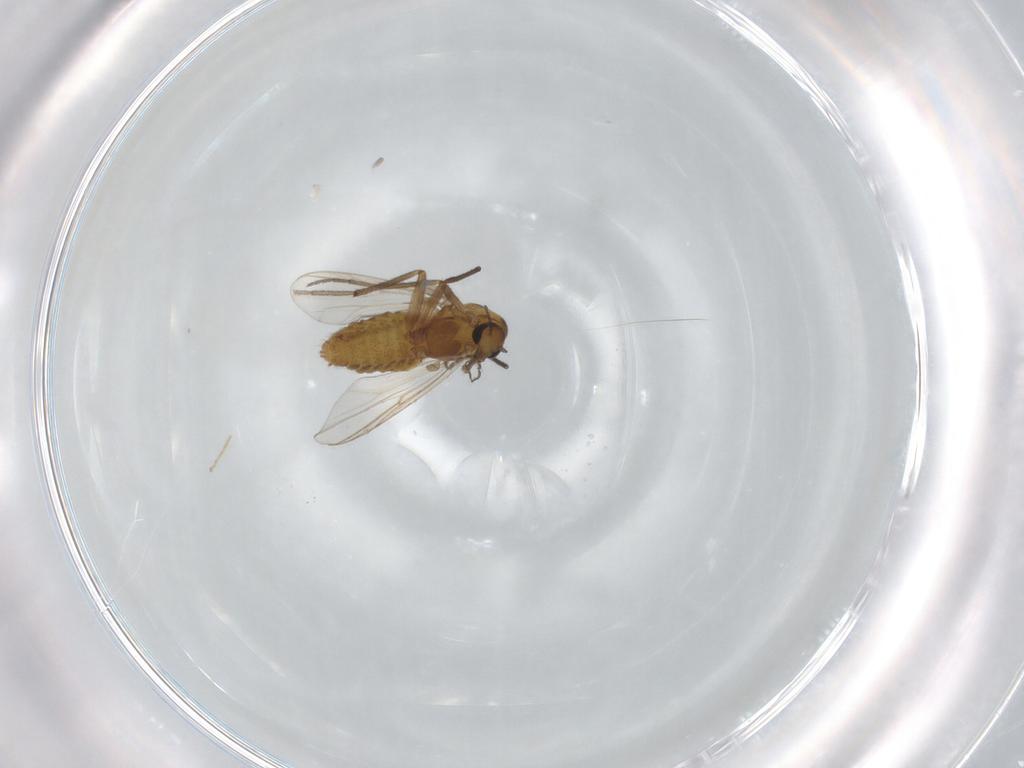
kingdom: Animalia
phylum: Arthropoda
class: Insecta
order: Diptera
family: Chironomidae
